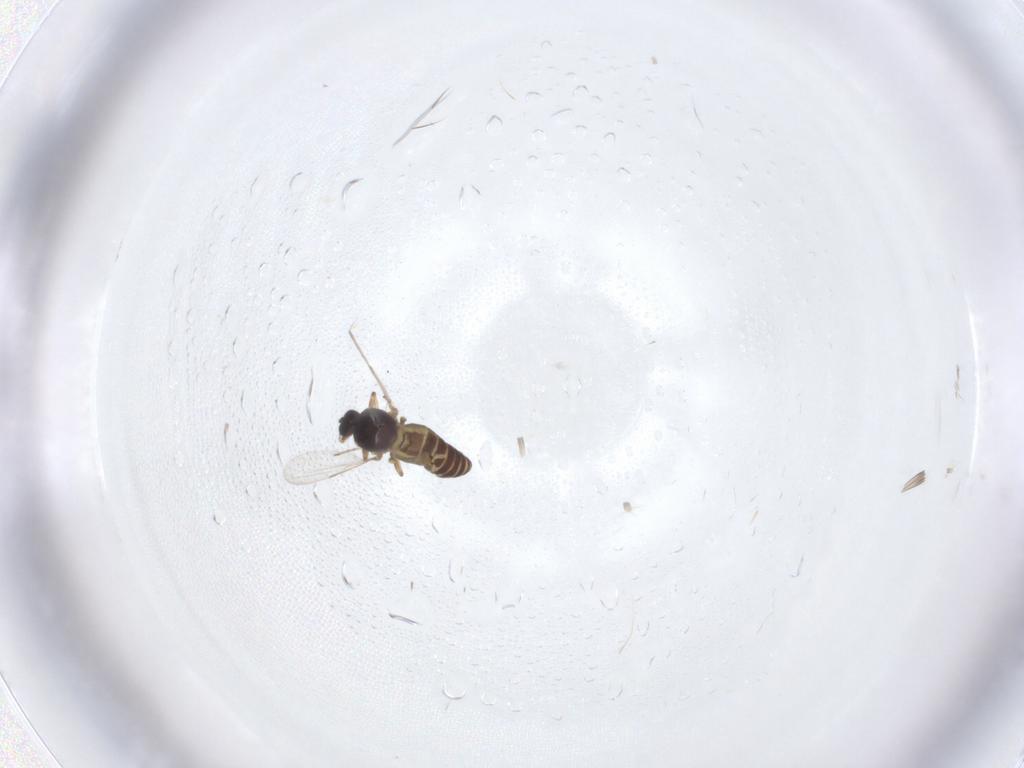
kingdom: Animalia
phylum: Arthropoda
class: Insecta
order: Diptera
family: Ceratopogonidae
